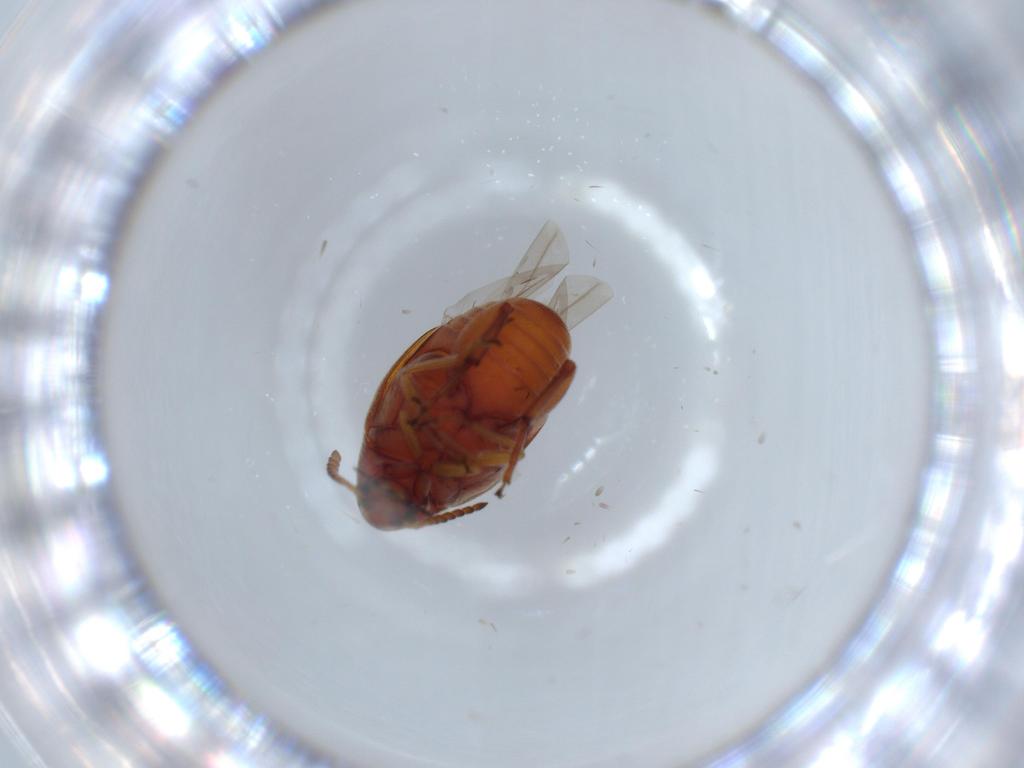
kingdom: Animalia
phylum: Arthropoda
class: Insecta
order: Coleoptera
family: Chrysomelidae
